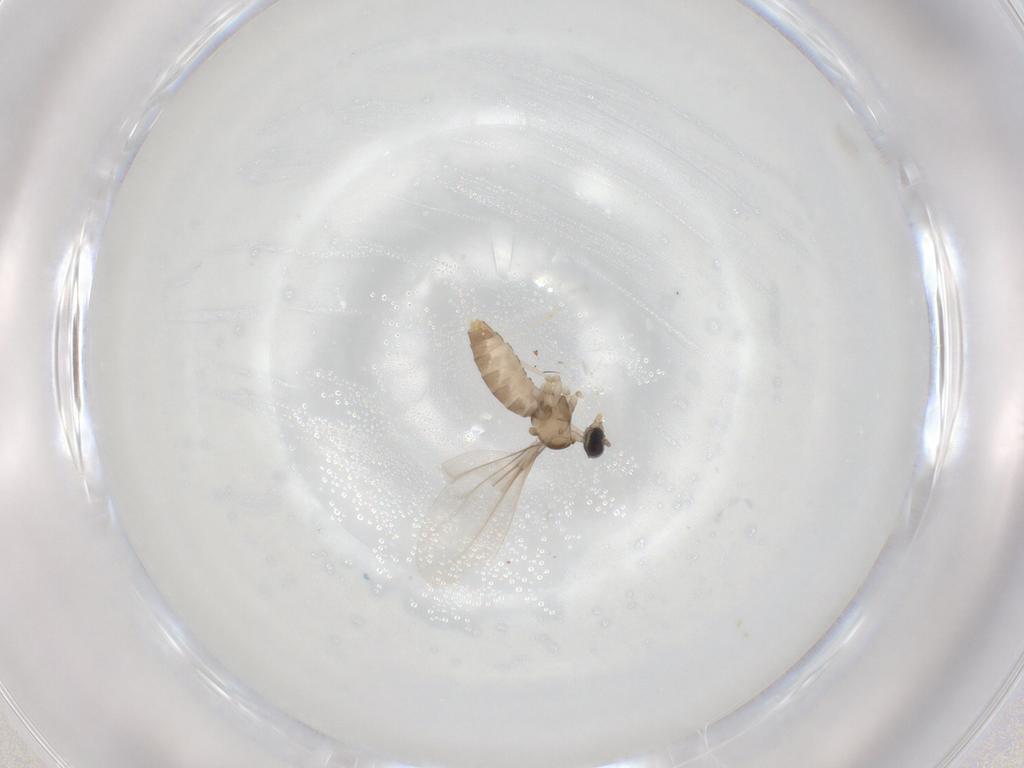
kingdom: Animalia
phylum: Arthropoda
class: Insecta
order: Diptera
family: Cecidomyiidae
